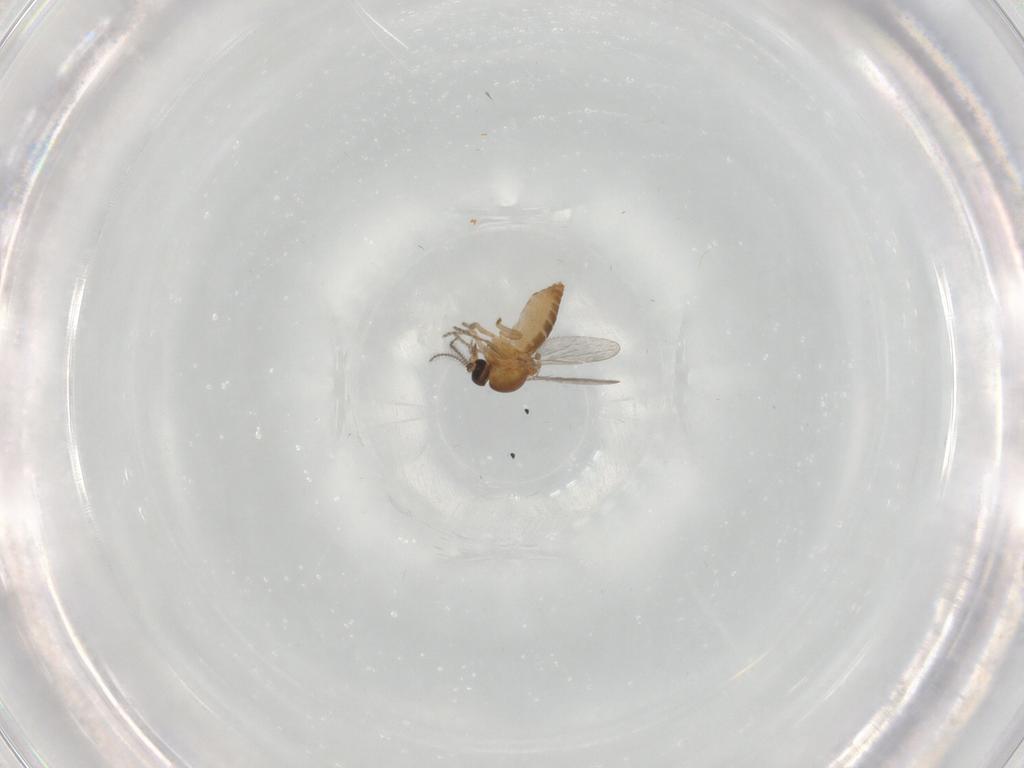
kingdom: Animalia
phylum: Arthropoda
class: Insecta
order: Diptera
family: Ceratopogonidae
